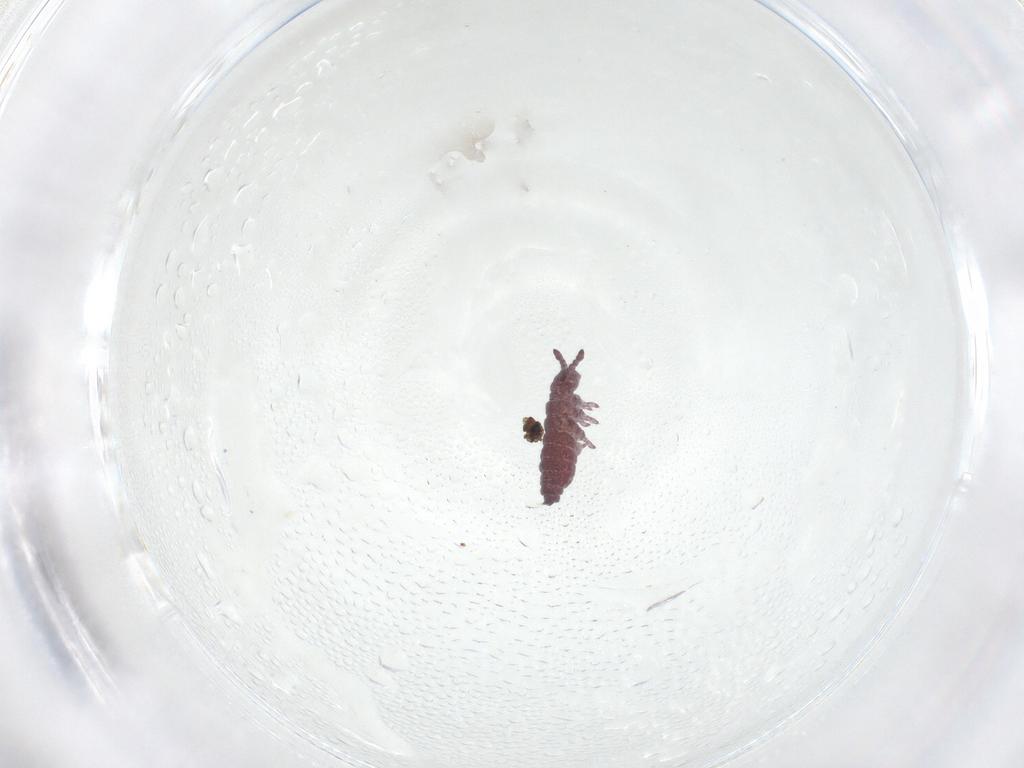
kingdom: Animalia
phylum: Arthropoda
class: Collembola
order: Poduromorpha
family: Hypogastruridae
